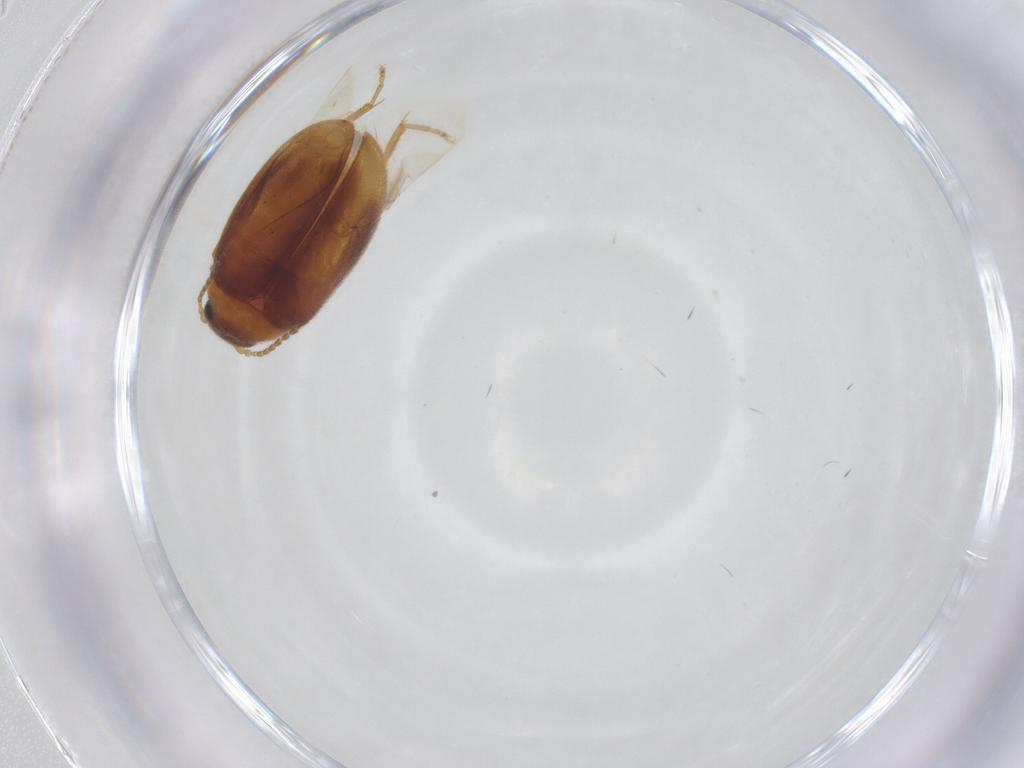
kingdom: Animalia
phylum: Arthropoda
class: Insecta
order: Coleoptera
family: Scirtidae
